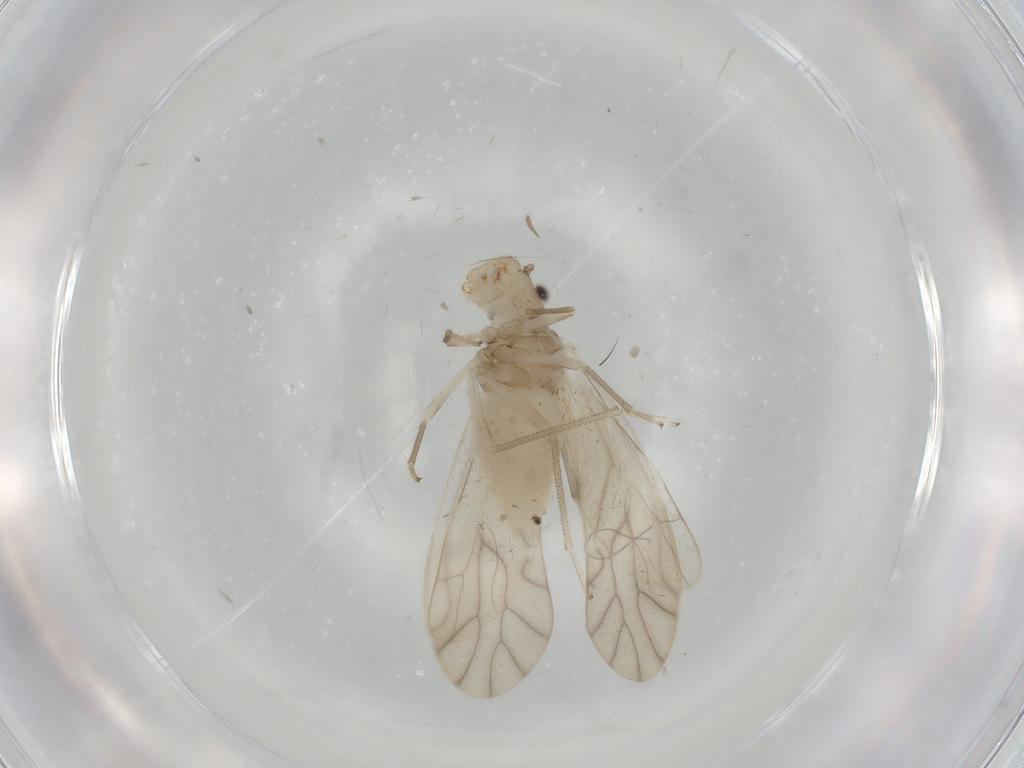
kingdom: Animalia
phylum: Arthropoda
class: Insecta
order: Psocodea
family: Caeciliusidae
